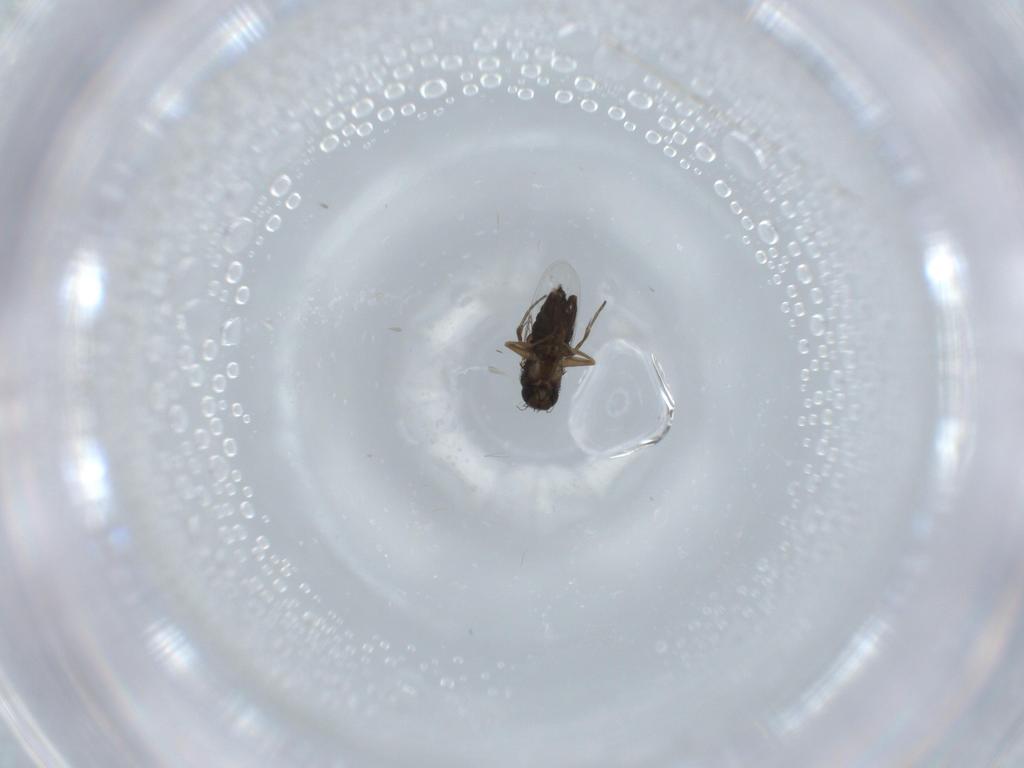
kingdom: Animalia
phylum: Arthropoda
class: Insecta
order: Diptera
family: Phoridae
